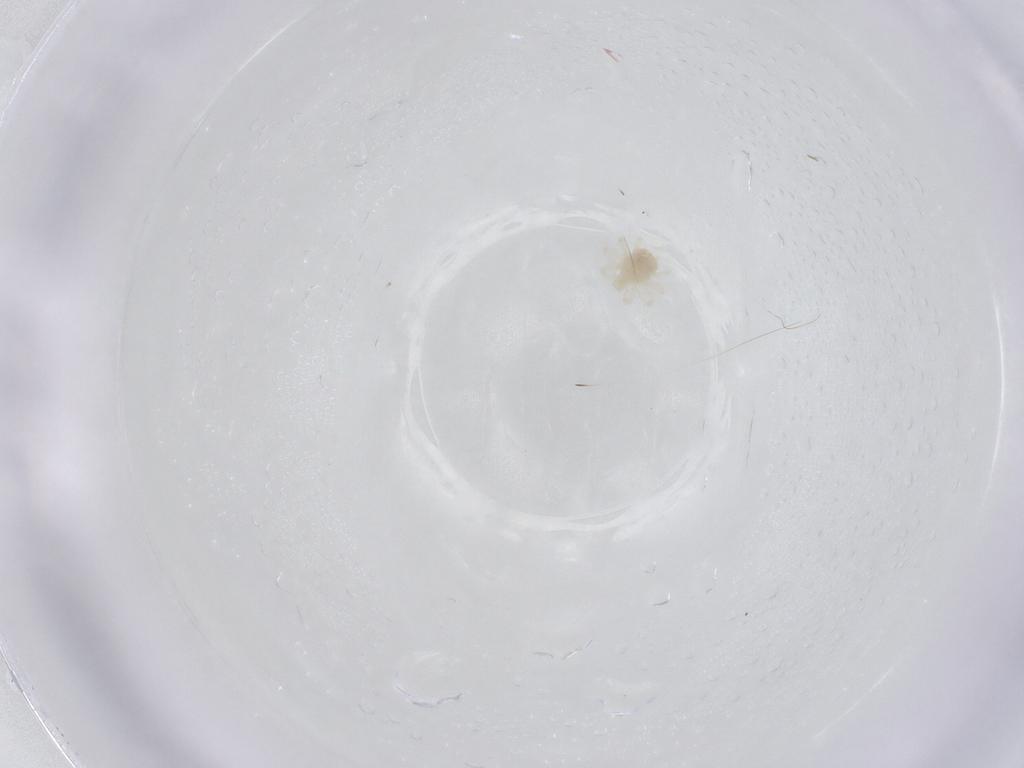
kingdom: Animalia
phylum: Arthropoda
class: Arachnida
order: Trombidiformes
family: Anystidae
